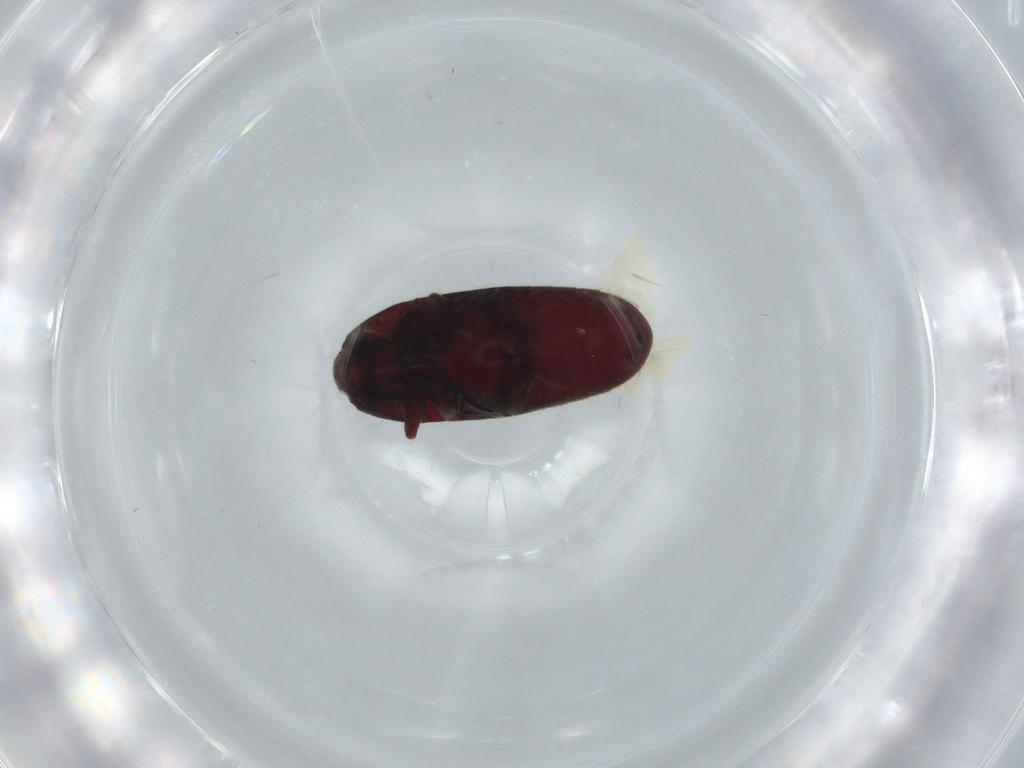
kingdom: Animalia
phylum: Arthropoda
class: Insecta
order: Coleoptera
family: Throscidae
